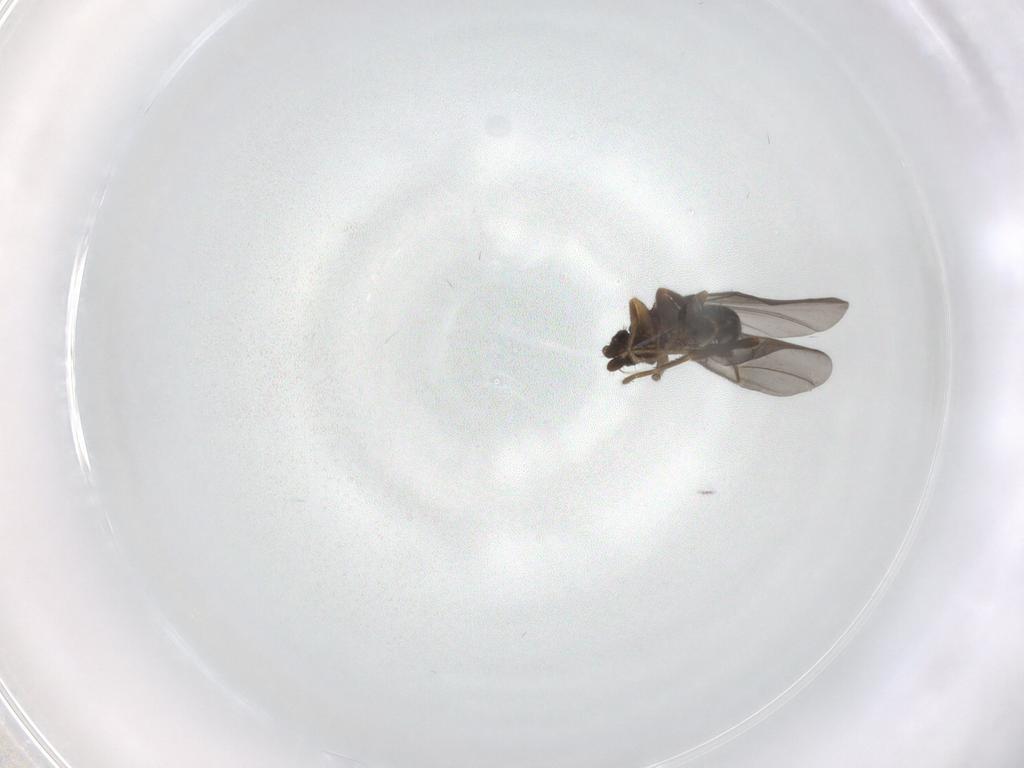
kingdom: Animalia
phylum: Arthropoda
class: Insecta
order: Diptera
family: Phoridae
